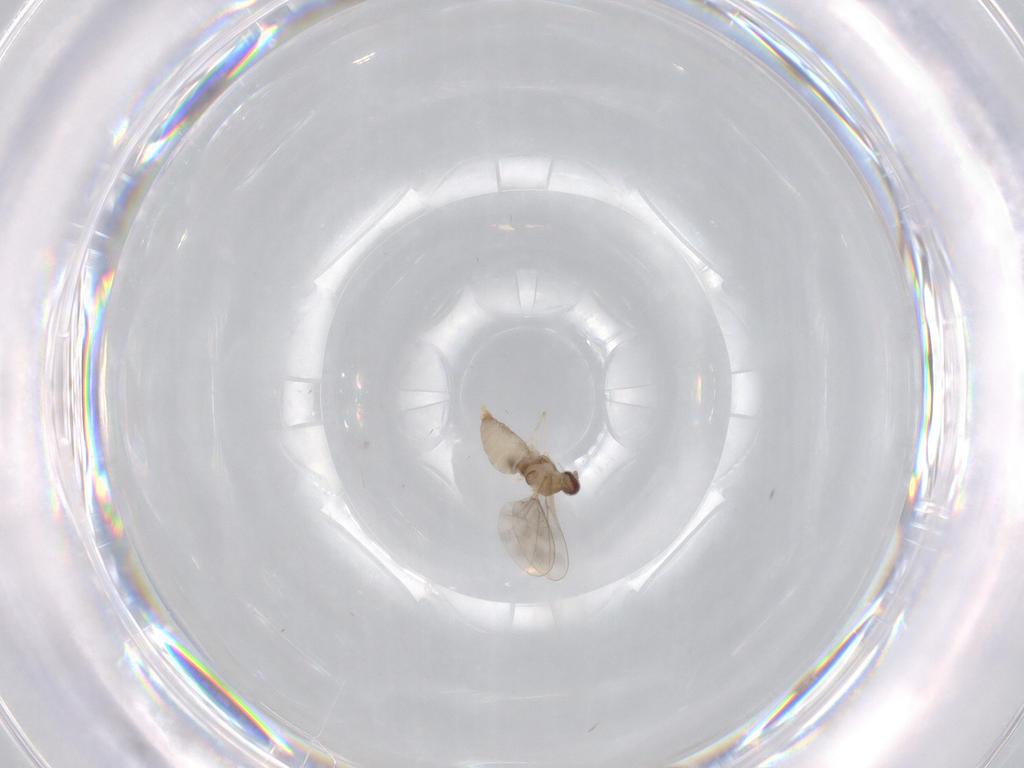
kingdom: Animalia
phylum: Arthropoda
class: Insecta
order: Diptera
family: Cecidomyiidae
